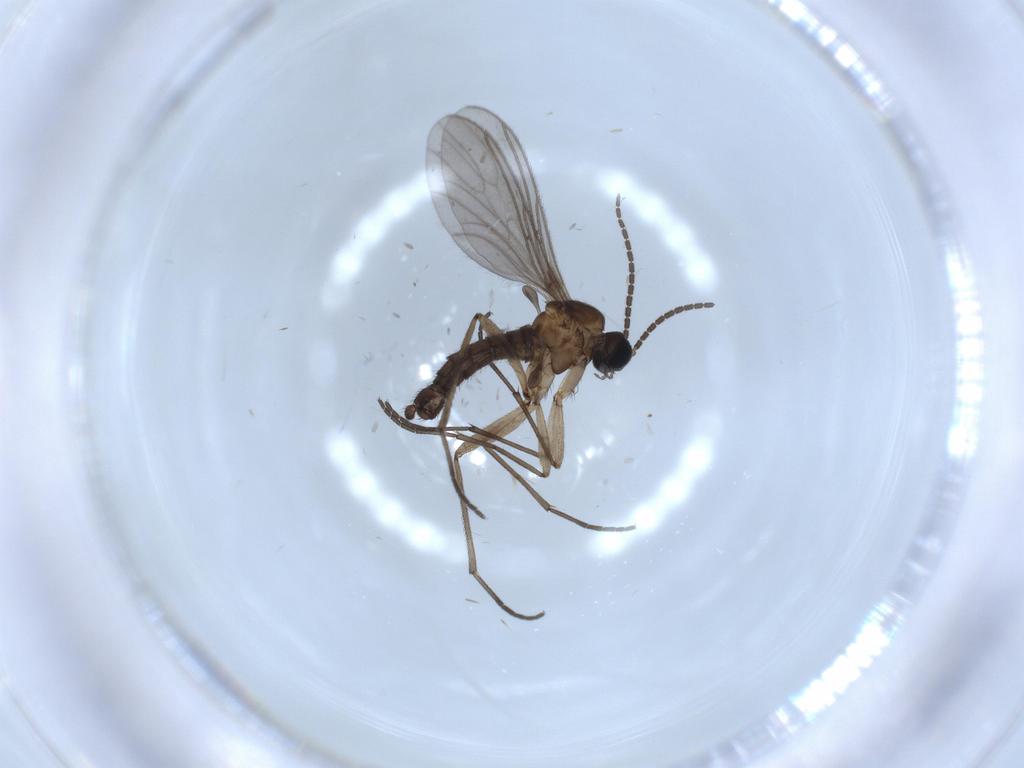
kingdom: Animalia
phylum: Arthropoda
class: Insecta
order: Diptera
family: Sciaridae
